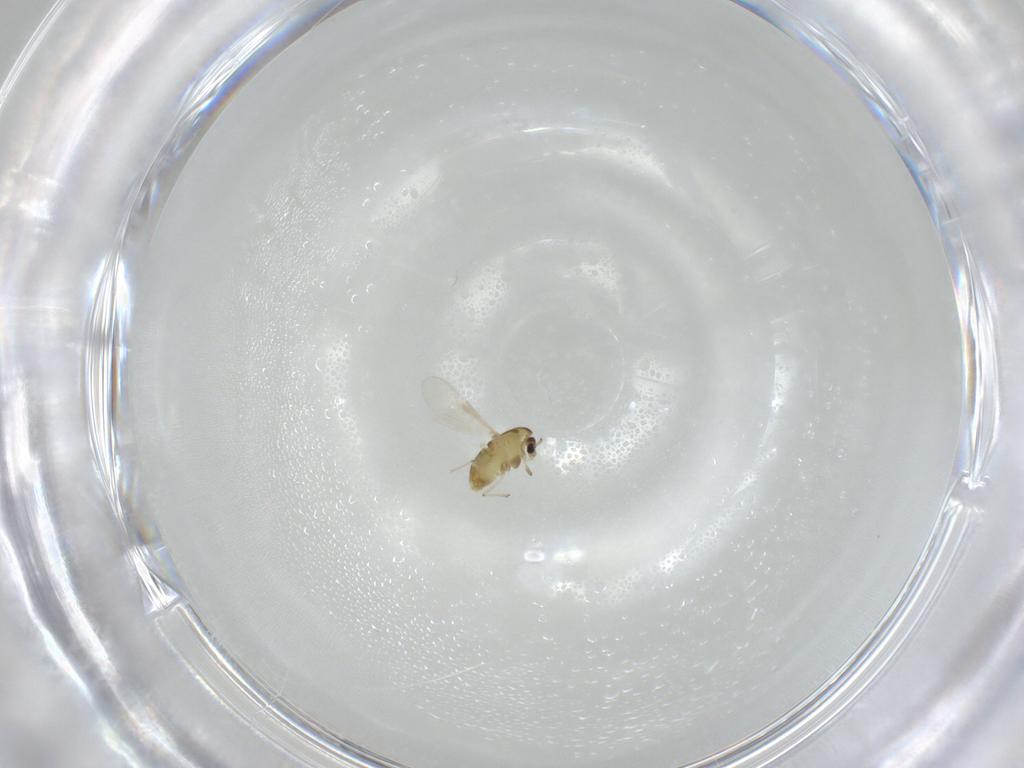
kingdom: Animalia
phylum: Arthropoda
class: Insecta
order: Diptera
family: Chironomidae
